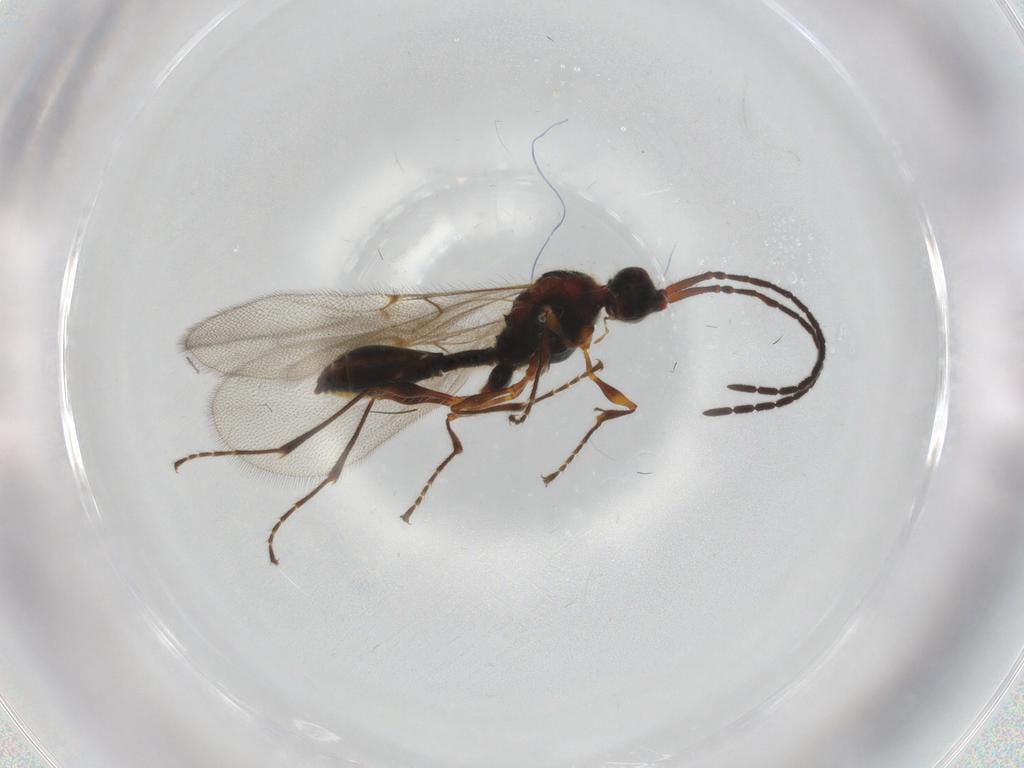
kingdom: Animalia
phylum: Arthropoda
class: Insecta
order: Hymenoptera
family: Diapriidae
